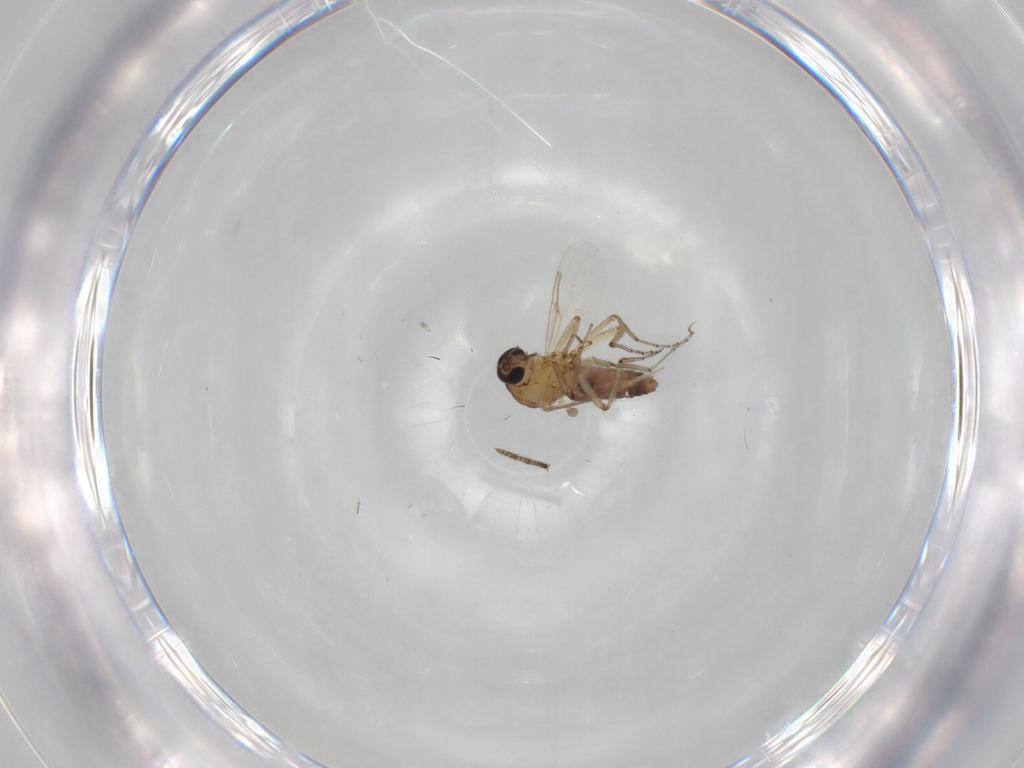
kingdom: Animalia
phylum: Arthropoda
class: Insecta
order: Diptera
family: Ceratopogonidae
